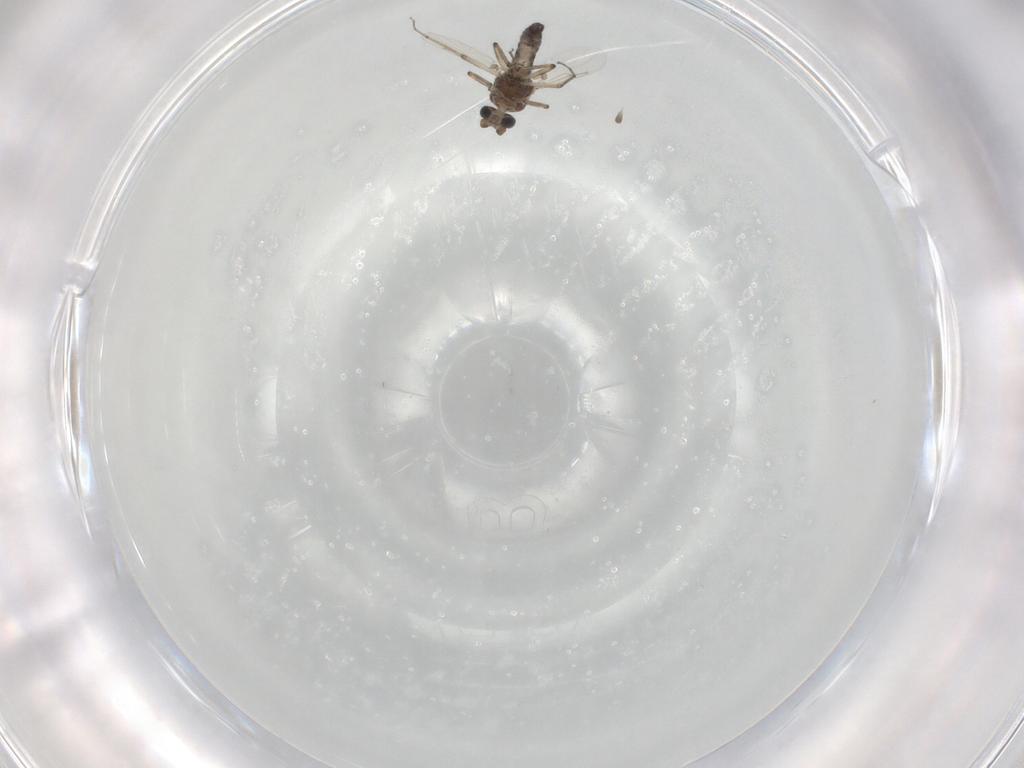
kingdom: Animalia
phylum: Arthropoda
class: Insecta
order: Diptera
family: Ceratopogonidae
